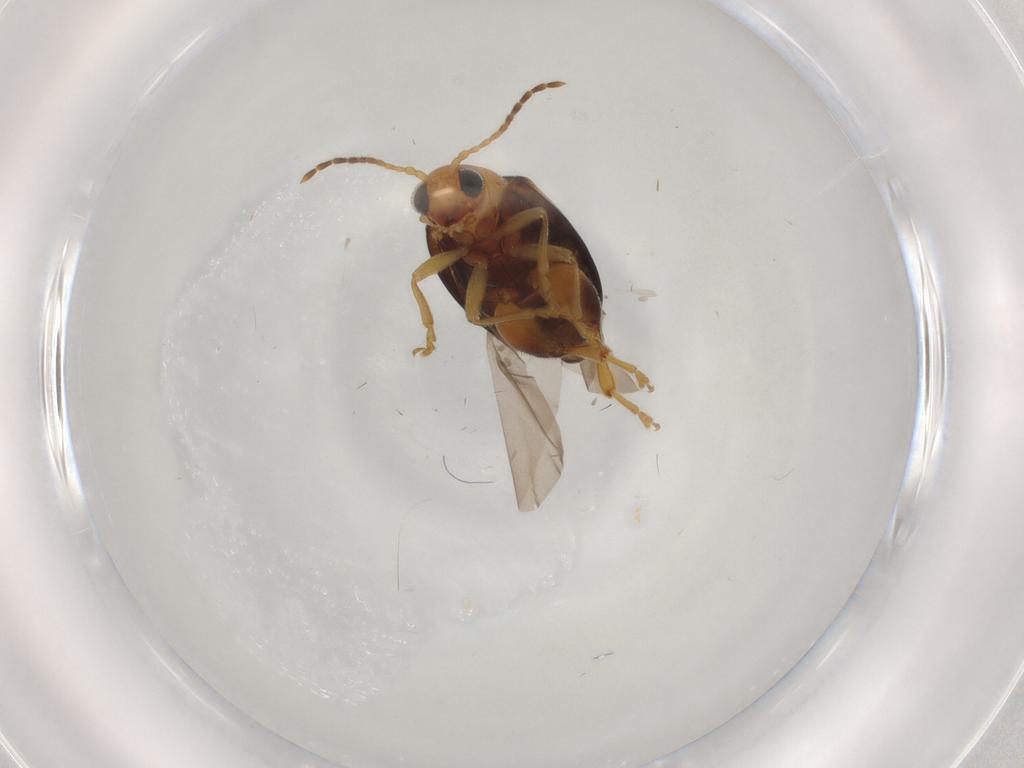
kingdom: Animalia
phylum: Arthropoda
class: Insecta
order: Coleoptera
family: Chrysomelidae
